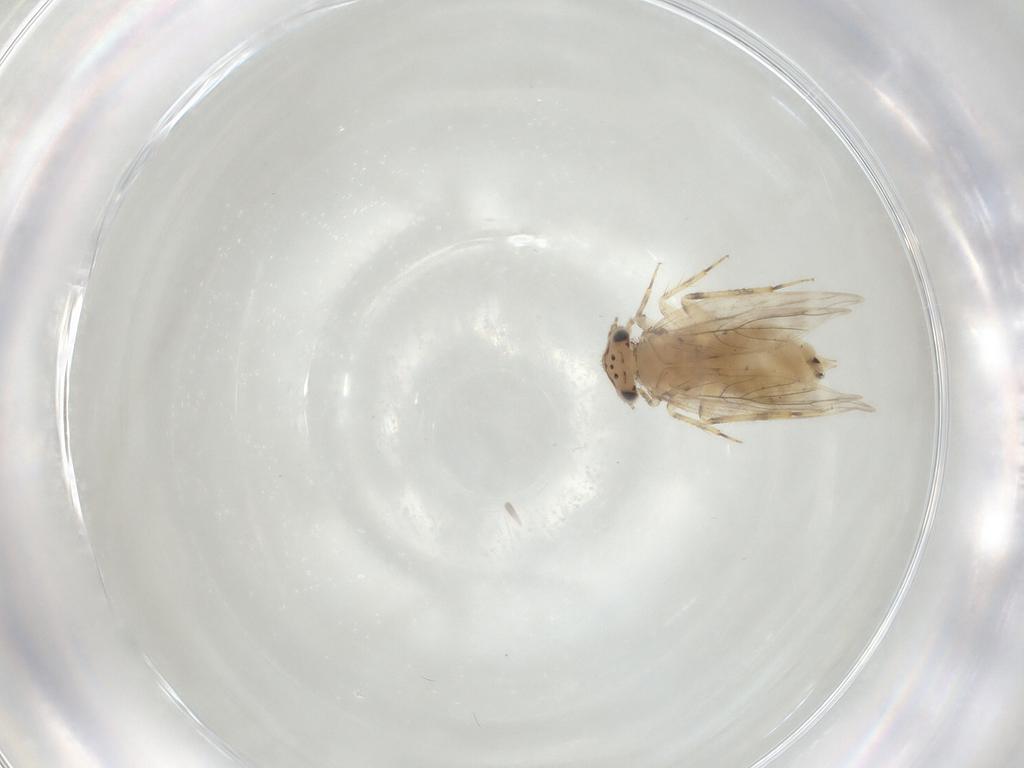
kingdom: Animalia
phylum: Arthropoda
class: Insecta
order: Psocodea
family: Lepidopsocidae
